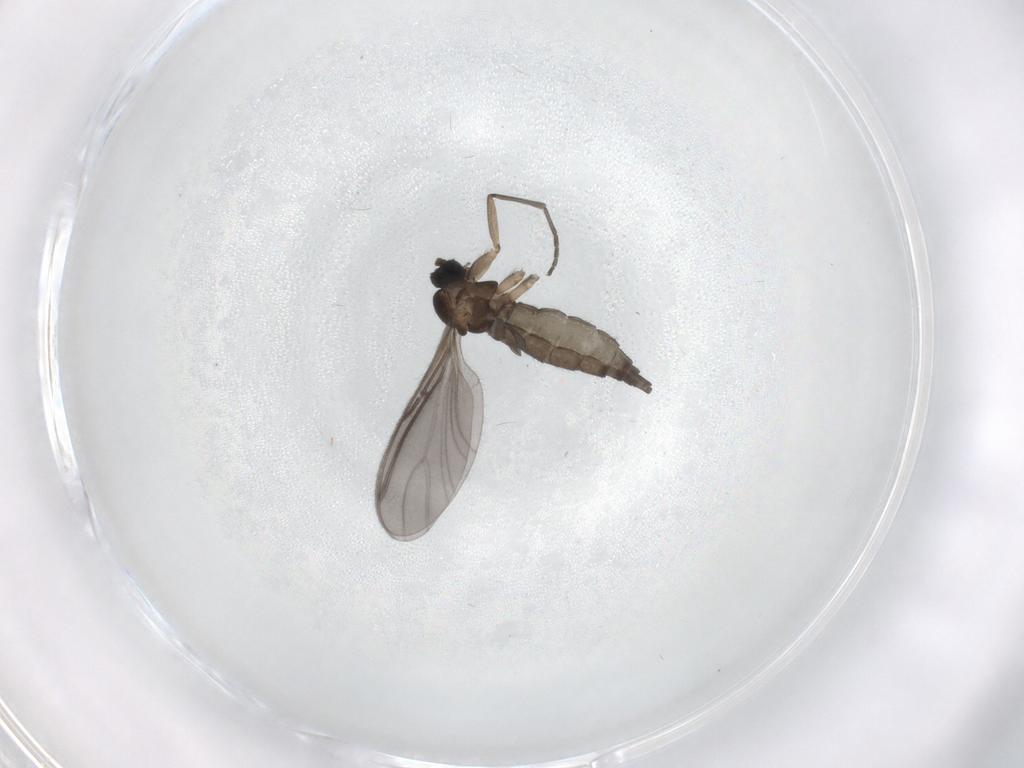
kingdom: Animalia
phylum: Arthropoda
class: Insecta
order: Diptera
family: Sciaridae
